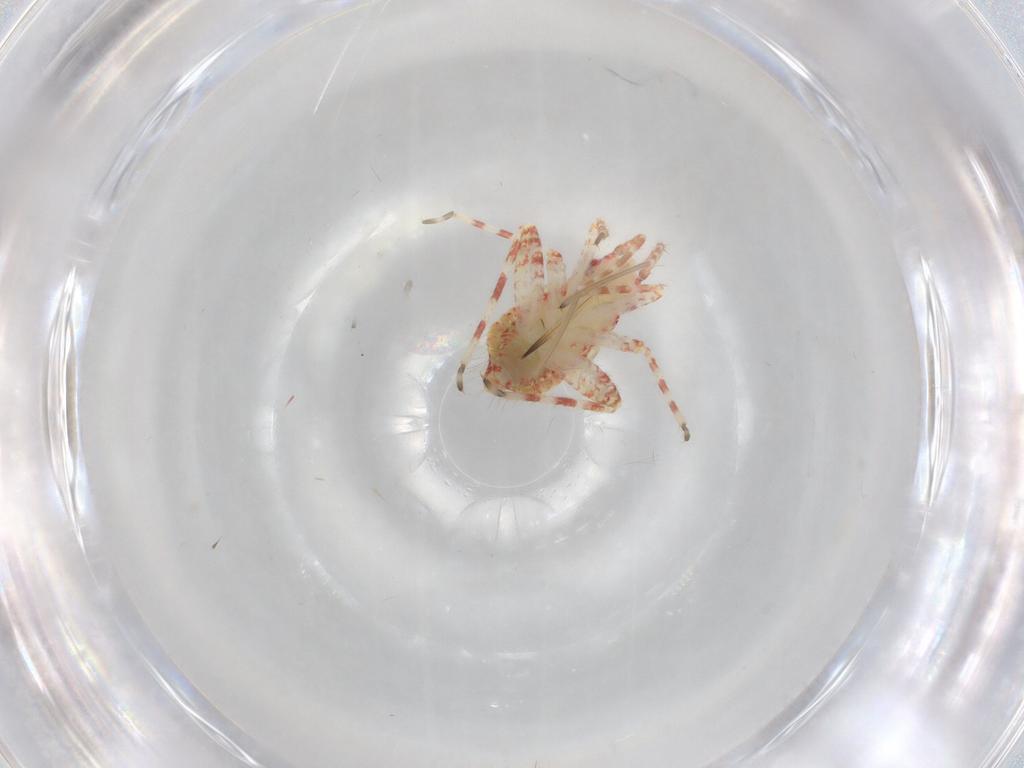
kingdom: Animalia
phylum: Arthropoda
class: Insecta
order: Hemiptera
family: Miridae
